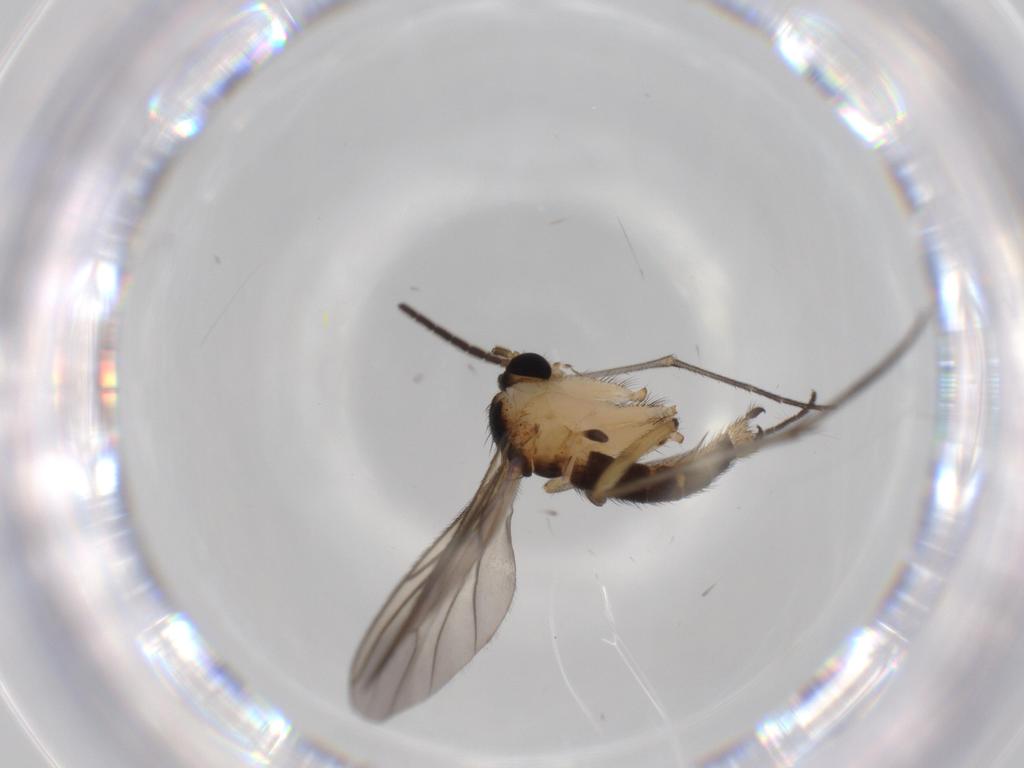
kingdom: Animalia
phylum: Arthropoda
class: Insecta
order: Diptera
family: Sciaridae
